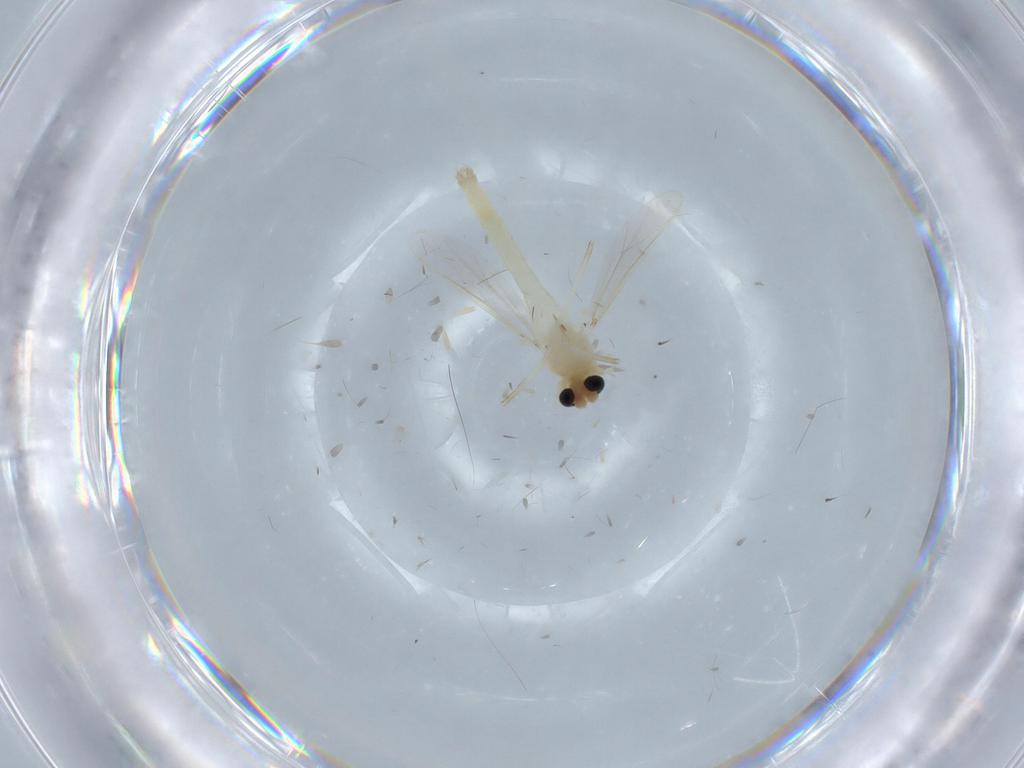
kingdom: Animalia
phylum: Arthropoda
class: Insecta
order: Diptera
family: Chironomidae
